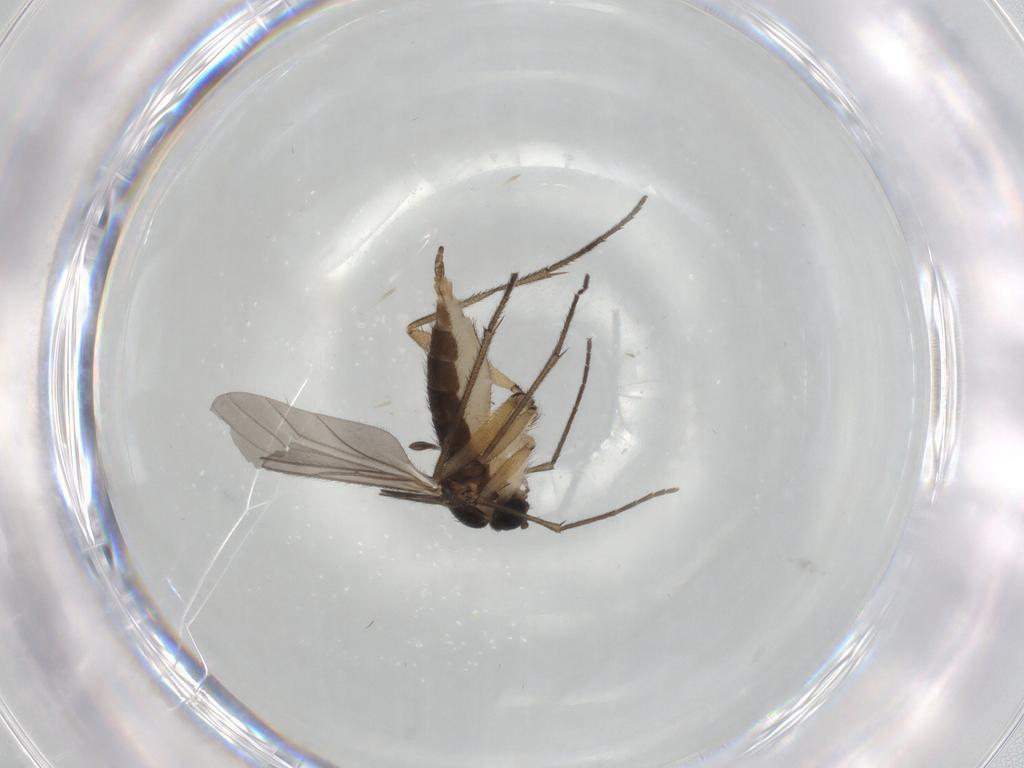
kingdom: Animalia
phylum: Arthropoda
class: Insecta
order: Diptera
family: Sciaridae
